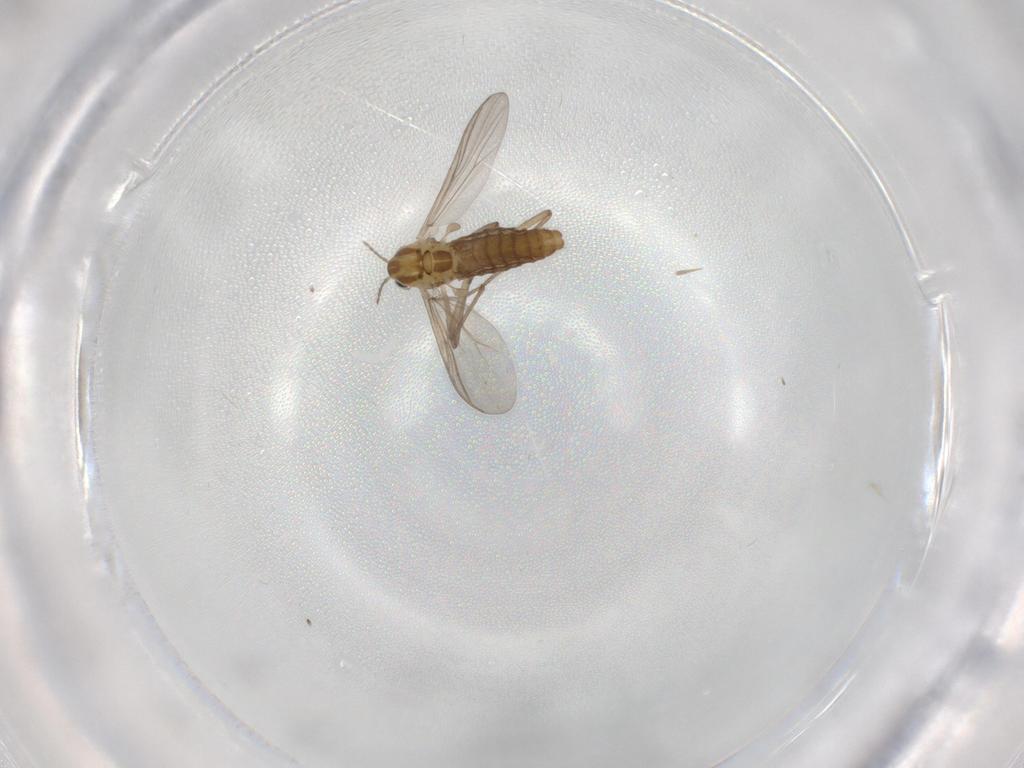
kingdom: Animalia
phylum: Arthropoda
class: Insecta
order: Diptera
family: Chironomidae
